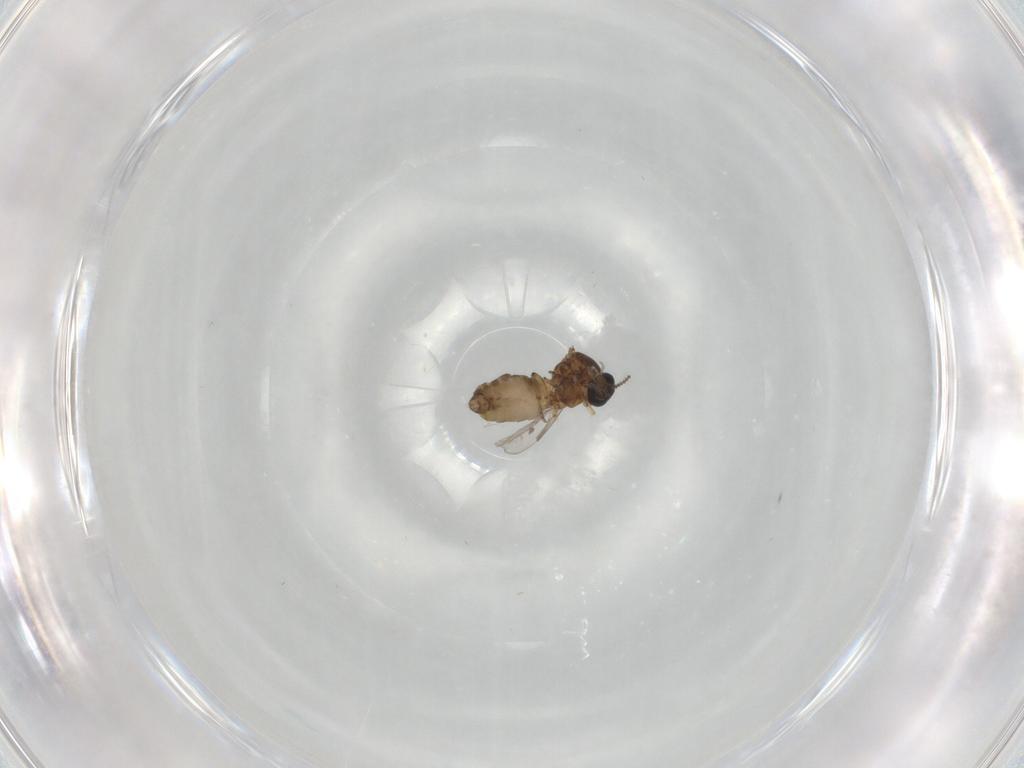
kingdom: Animalia
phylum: Arthropoda
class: Insecta
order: Diptera
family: Ceratopogonidae
